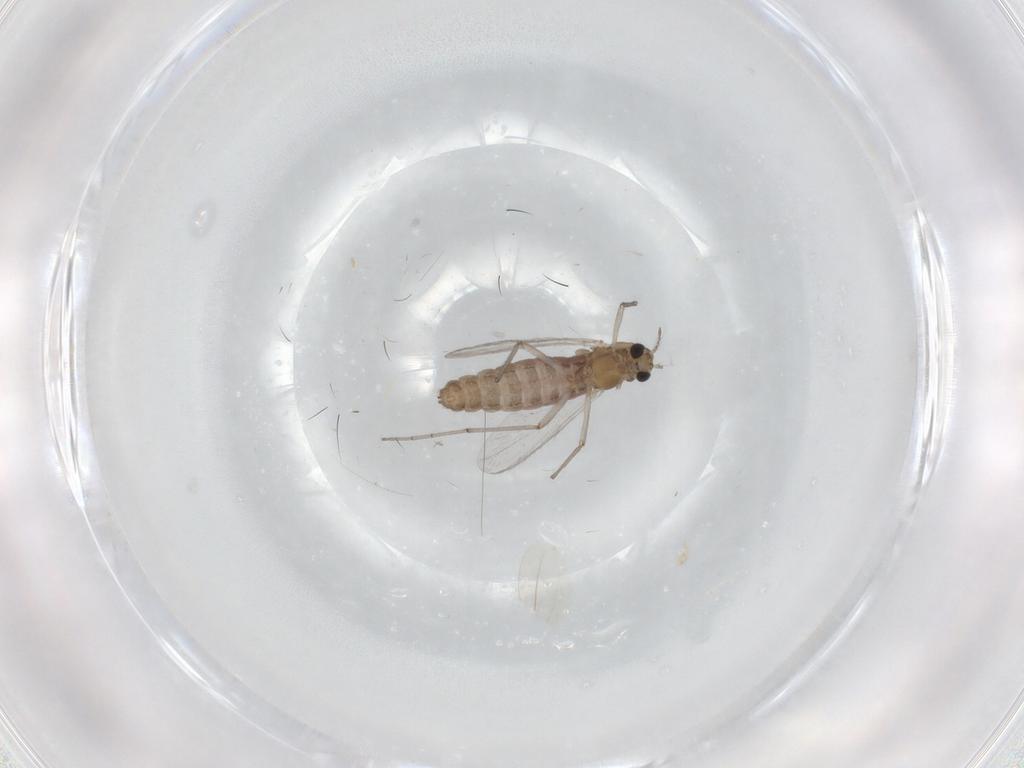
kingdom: Animalia
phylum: Arthropoda
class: Insecta
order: Diptera
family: Chironomidae
